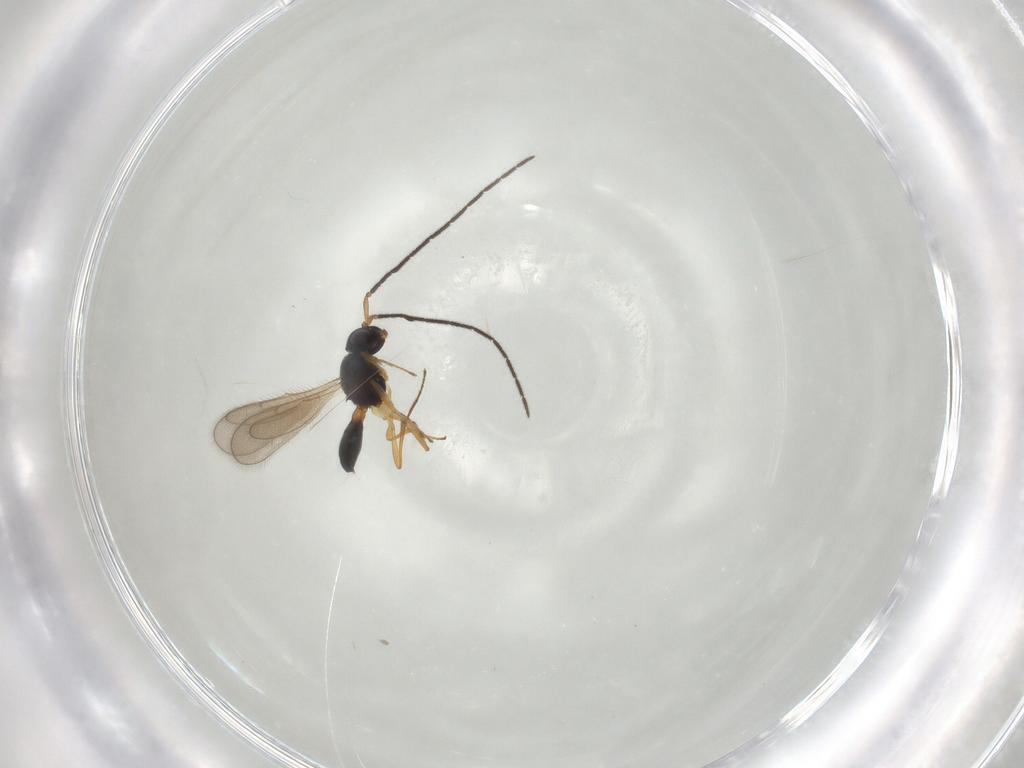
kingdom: Animalia
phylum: Arthropoda
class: Insecta
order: Hymenoptera
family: Scelionidae
